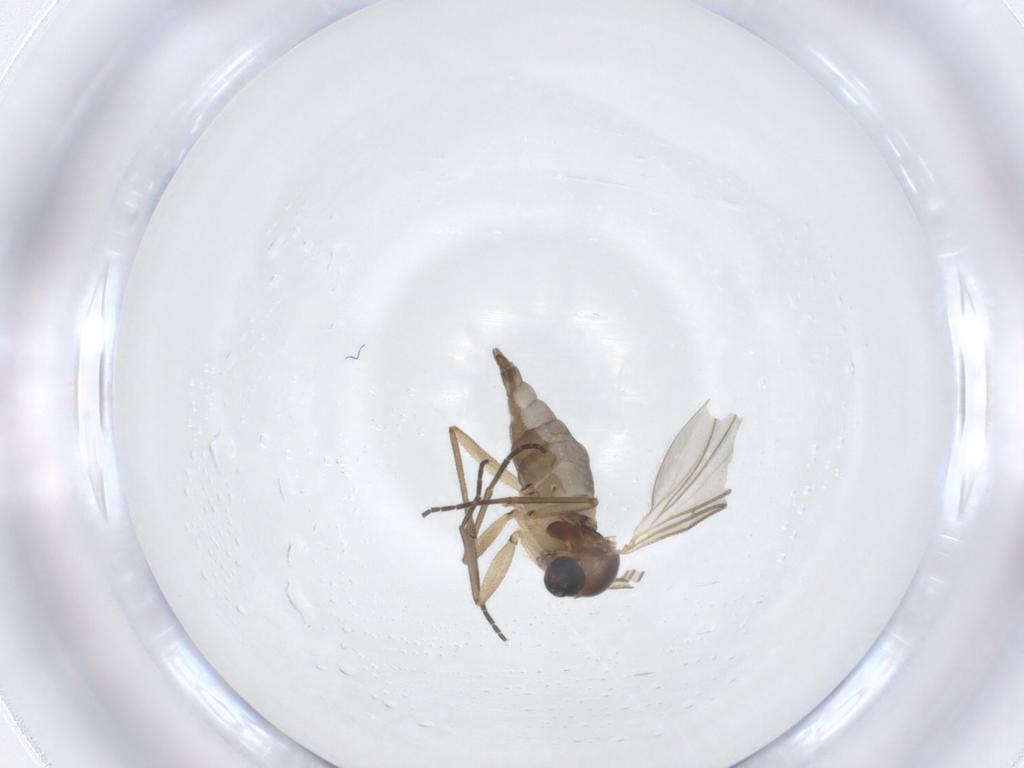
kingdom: Animalia
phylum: Arthropoda
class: Insecta
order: Diptera
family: Sciaridae
